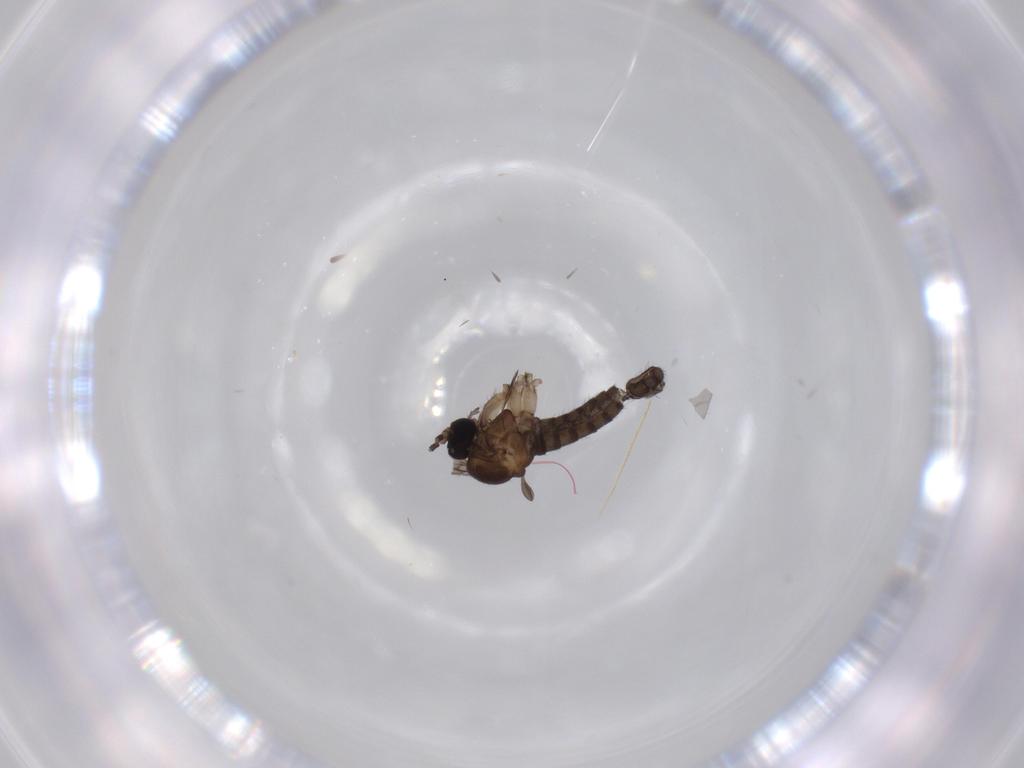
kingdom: Animalia
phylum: Arthropoda
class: Insecta
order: Diptera
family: Sciaridae
